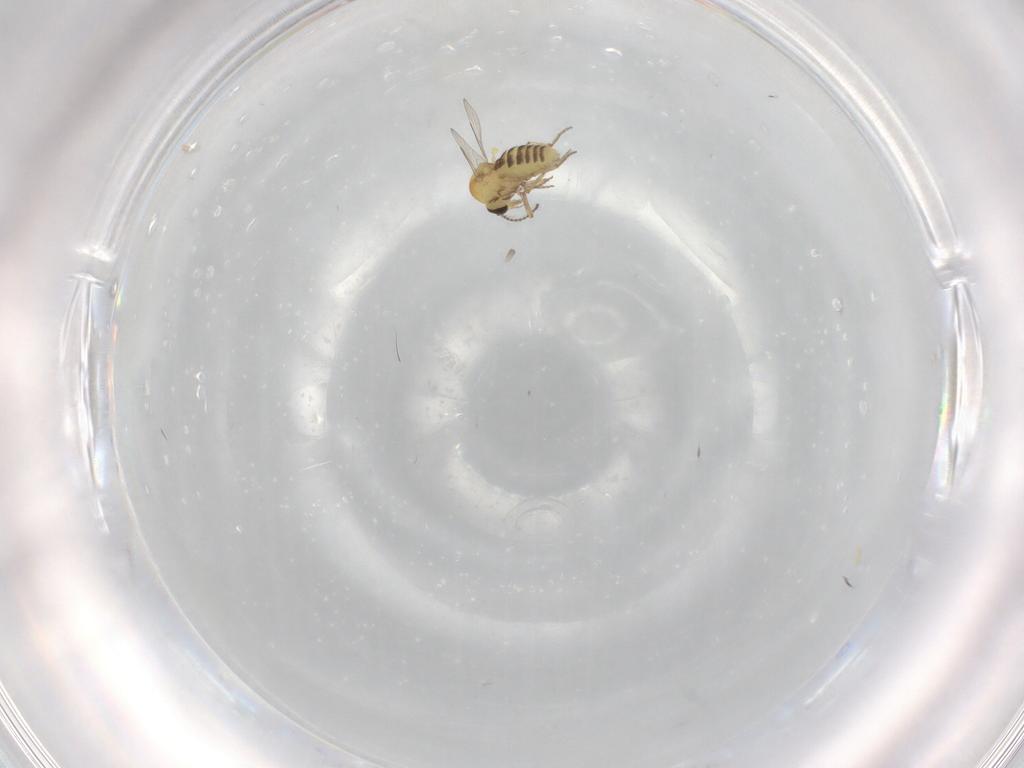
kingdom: Animalia
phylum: Arthropoda
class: Insecta
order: Diptera
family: Ceratopogonidae
